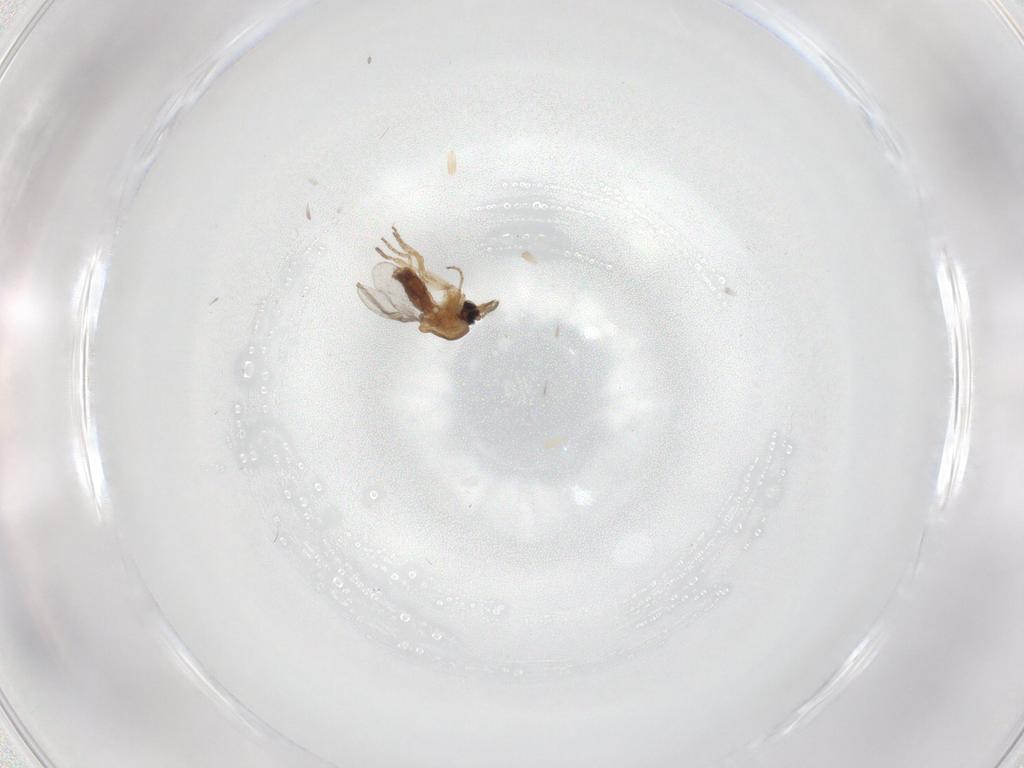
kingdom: Animalia
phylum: Arthropoda
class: Insecta
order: Diptera
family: Ceratopogonidae
